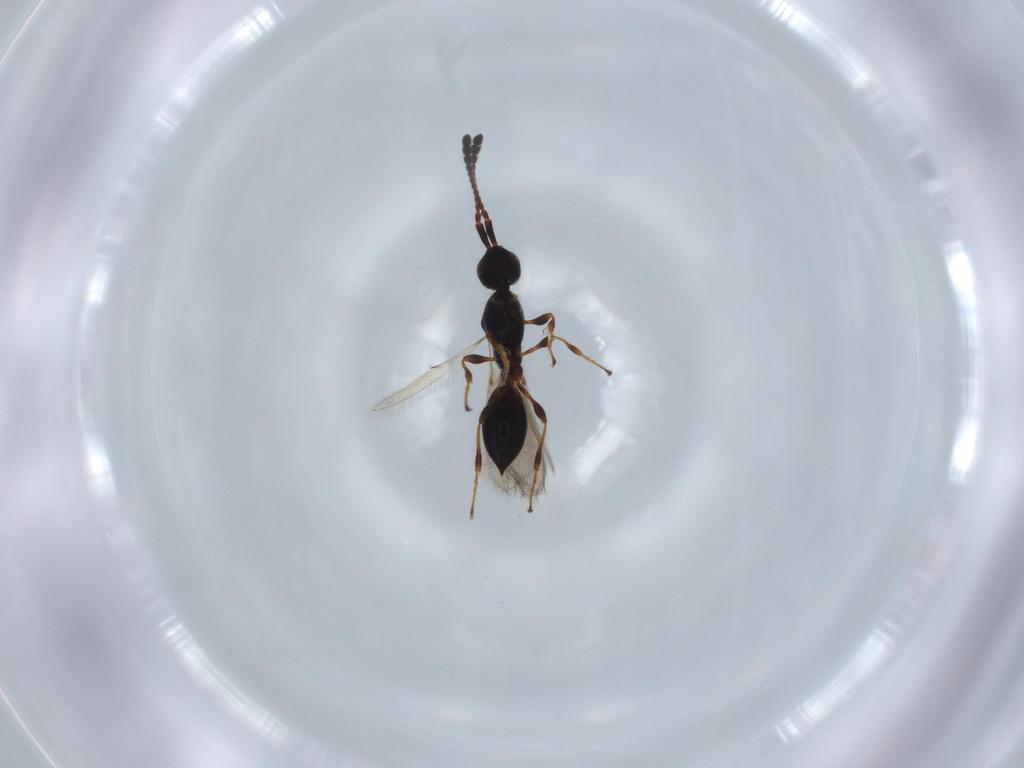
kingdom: Animalia
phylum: Arthropoda
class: Insecta
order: Hymenoptera
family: Diapriidae
